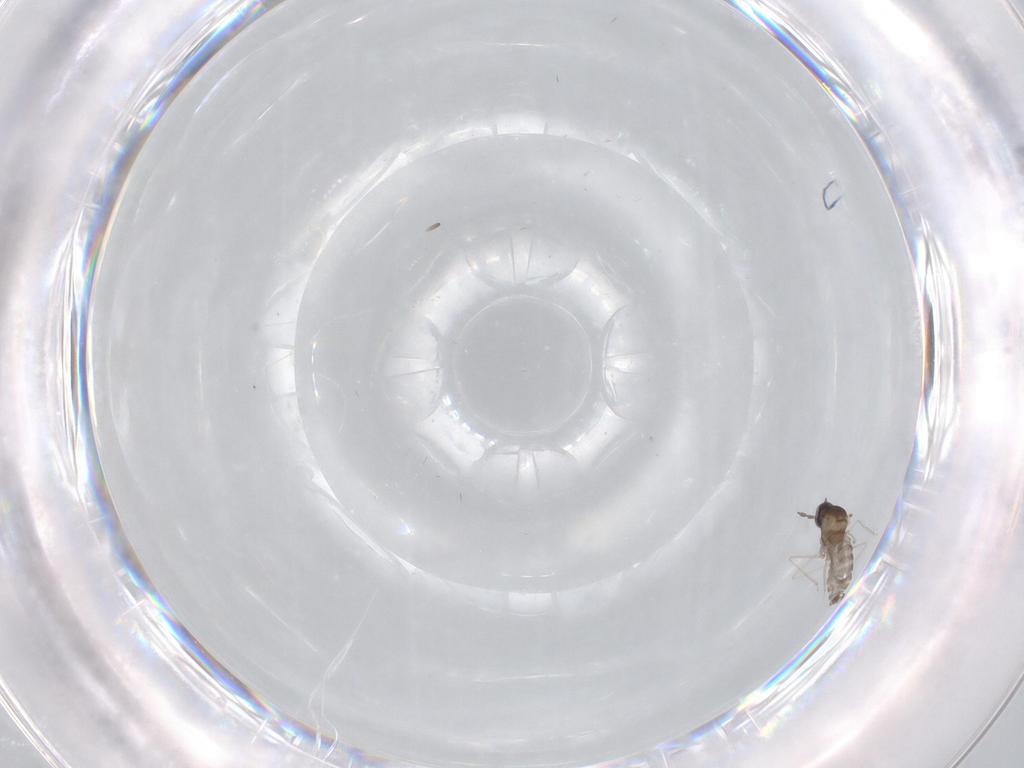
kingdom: Animalia
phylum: Arthropoda
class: Insecta
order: Diptera
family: Cecidomyiidae
